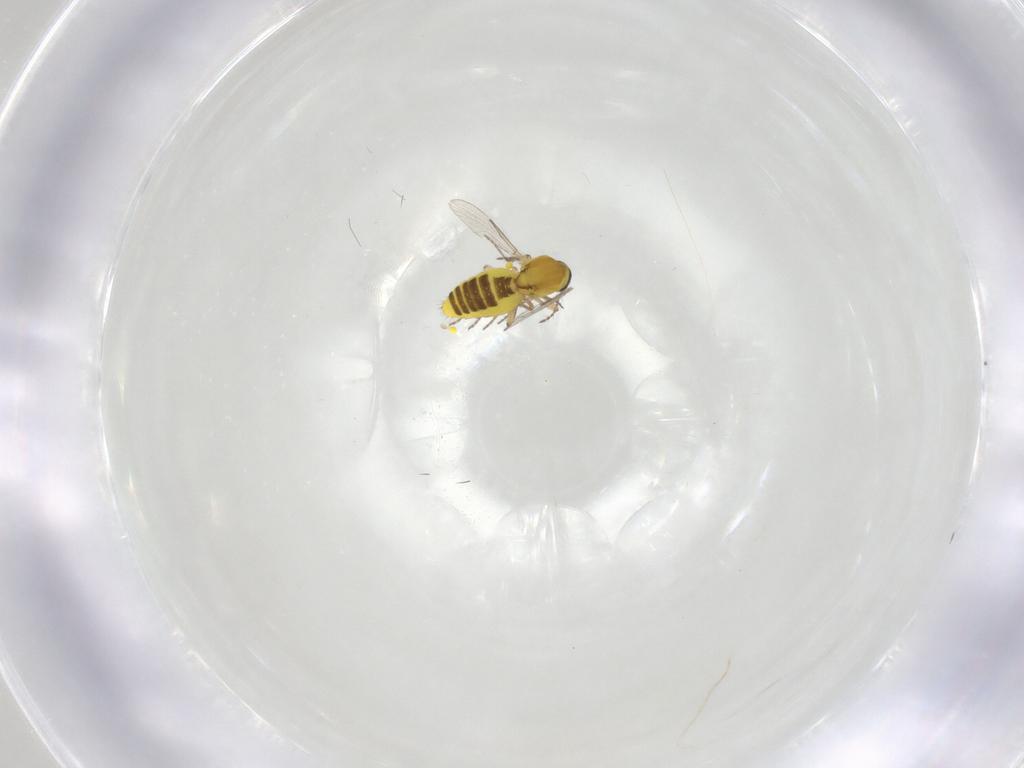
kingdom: Animalia
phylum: Arthropoda
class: Insecta
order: Diptera
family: Ceratopogonidae
